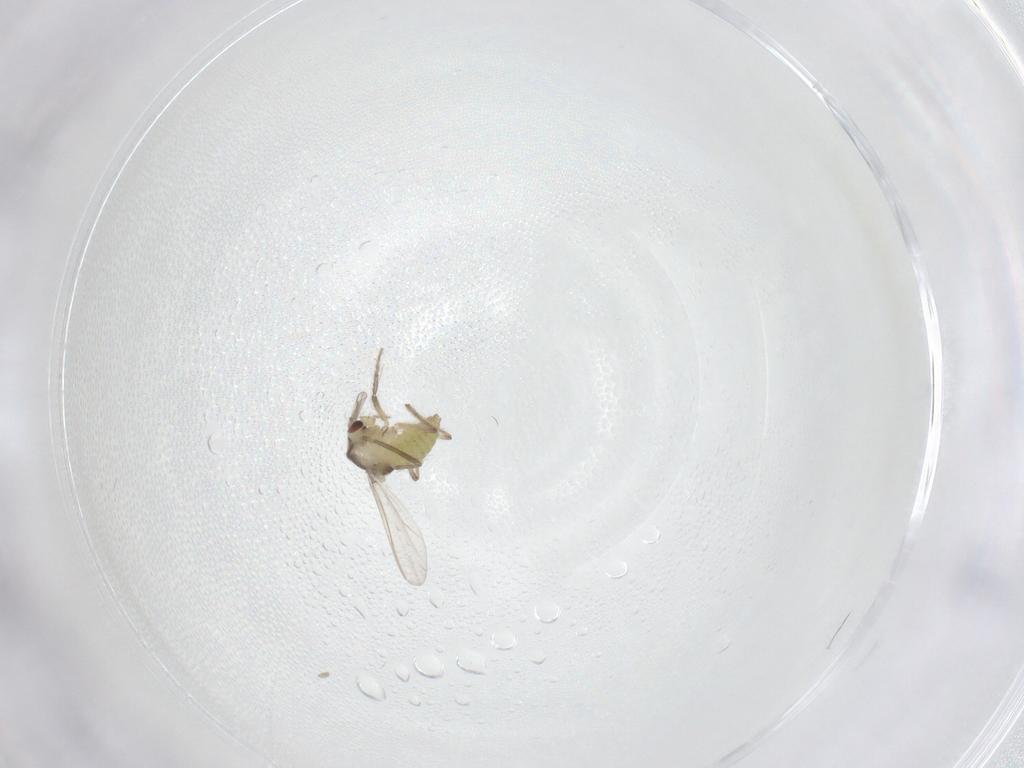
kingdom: Animalia
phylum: Arthropoda
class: Insecta
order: Diptera
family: Chironomidae
